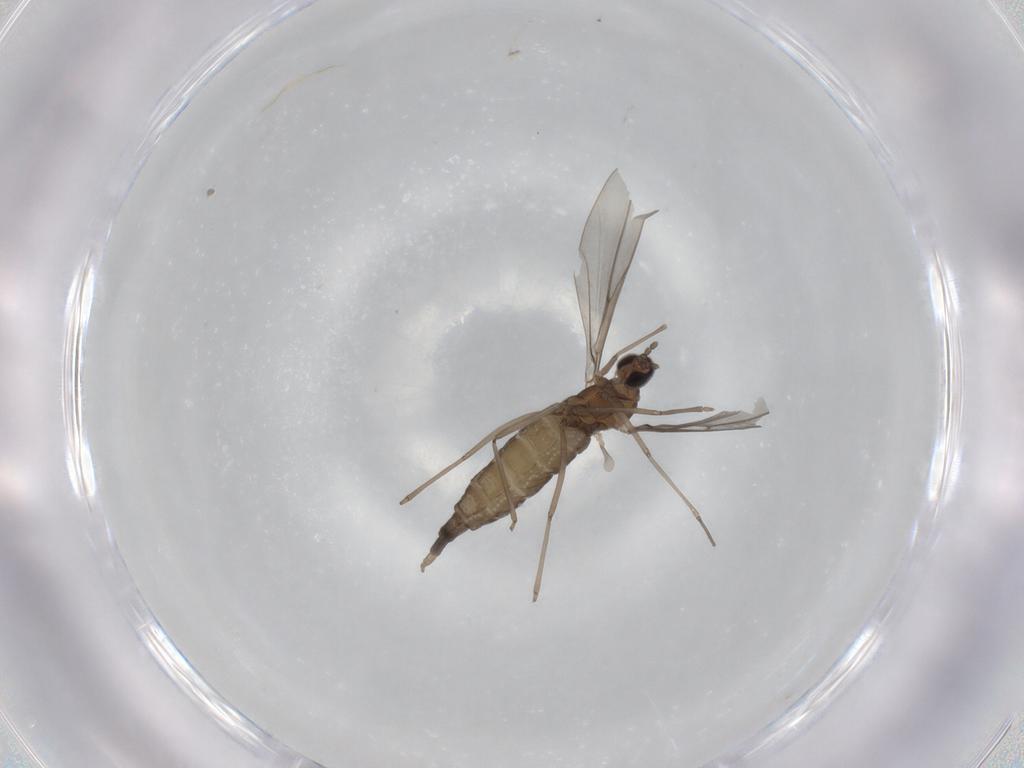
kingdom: Animalia
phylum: Arthropoda
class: Insecta
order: Diptera
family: Cecidomyiidae
